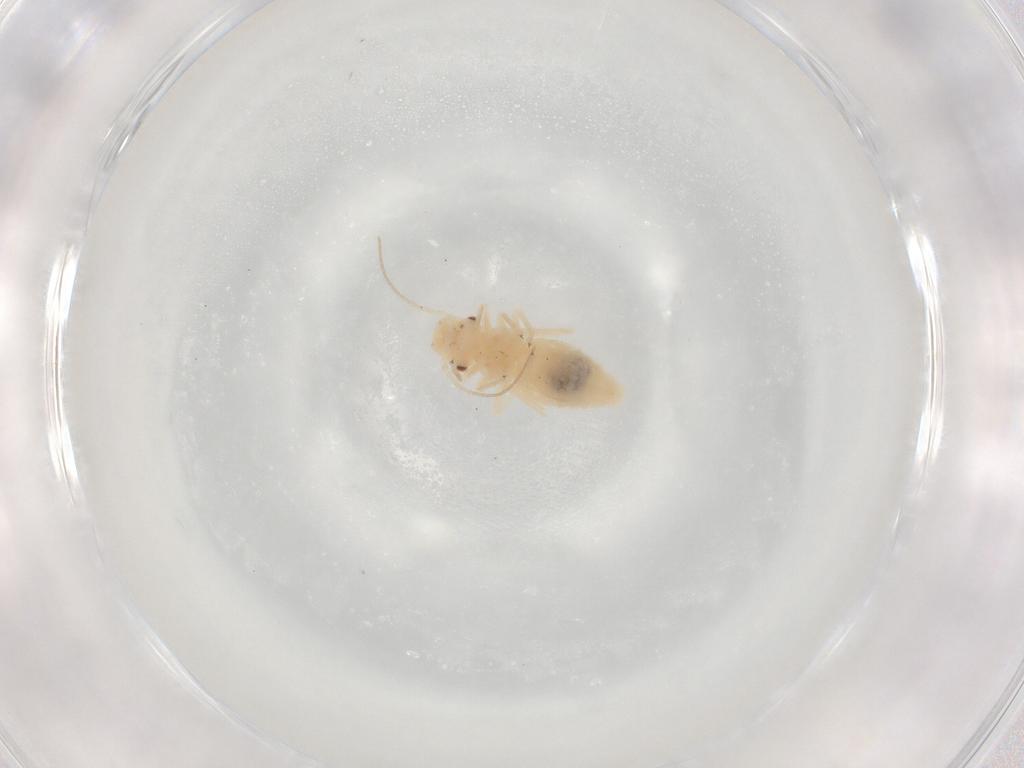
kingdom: Animalia
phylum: Arthropoda
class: Insecta
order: Psocodea
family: Caeciliusidae
